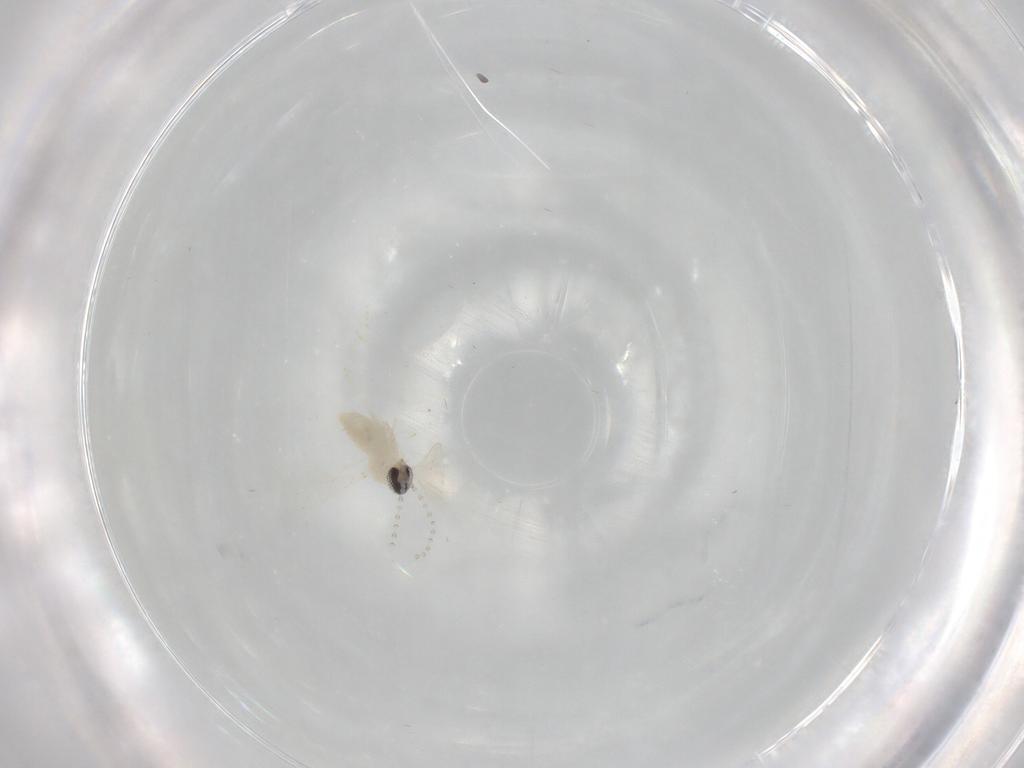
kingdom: Animalia
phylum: Arthropoda
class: Insecta
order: Diptera
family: Cecidomyiidae
